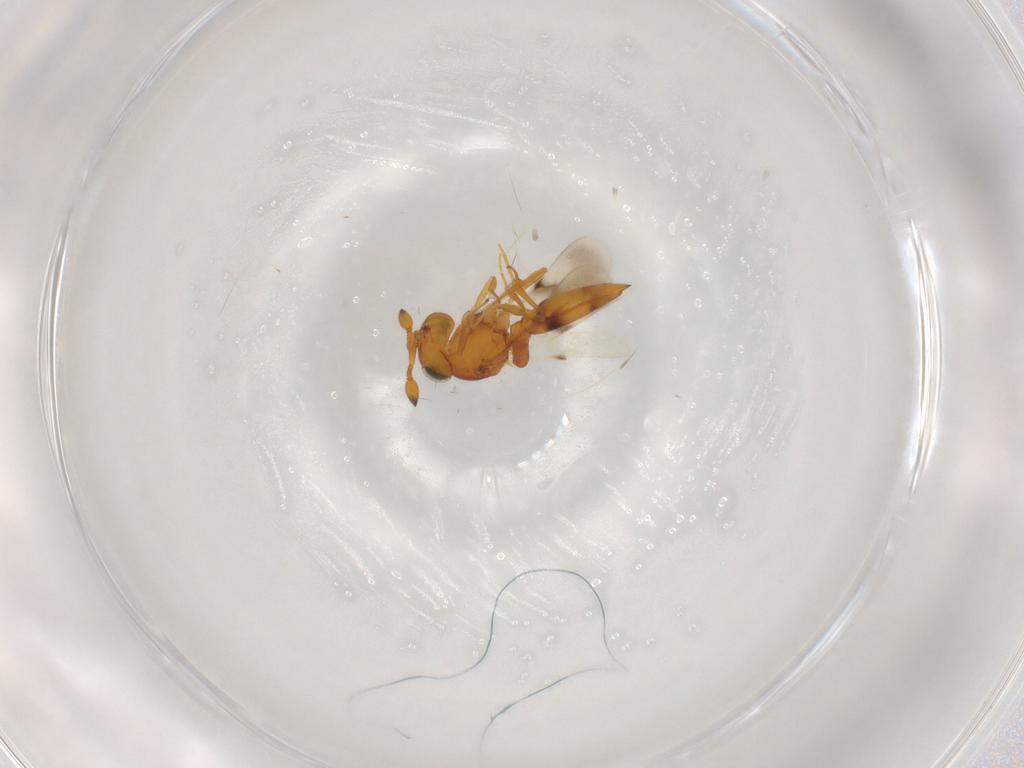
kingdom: Animalia
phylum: Arthropoda
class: Insecta
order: Hymenoptera
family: Scelionidae
